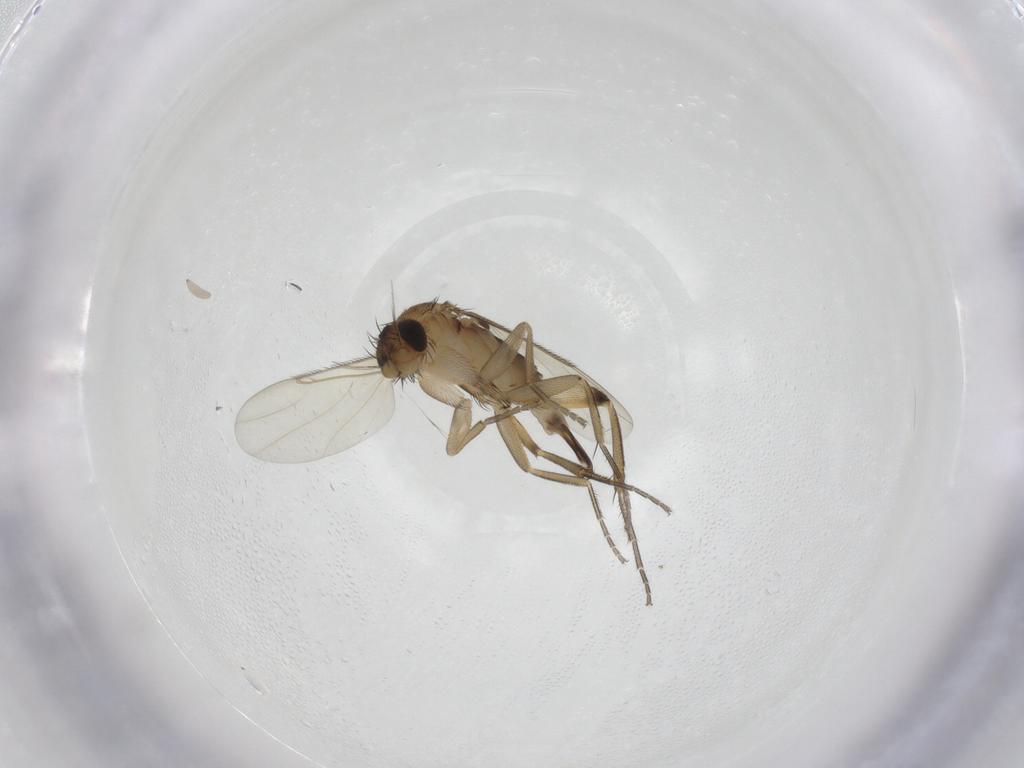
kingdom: Animalia
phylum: Arthropoda
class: Insecta
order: Diptera
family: Phoridae
